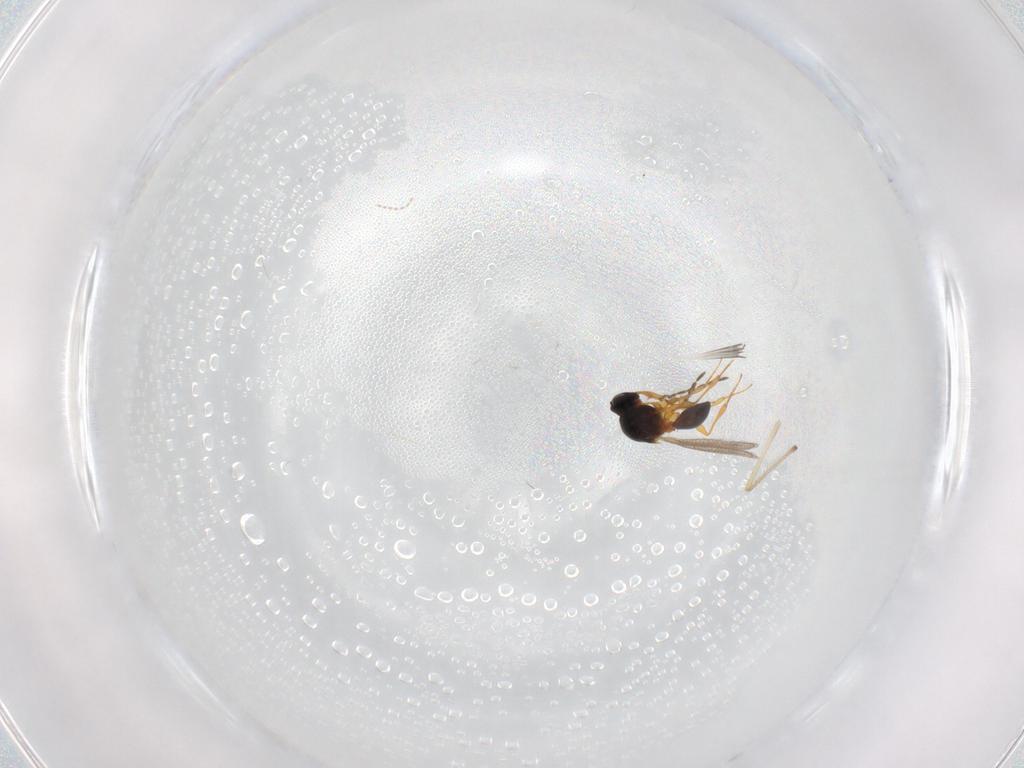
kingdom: Animalia
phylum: Arthropoda
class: Insecta
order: Hymenoptera
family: Platygastridae
